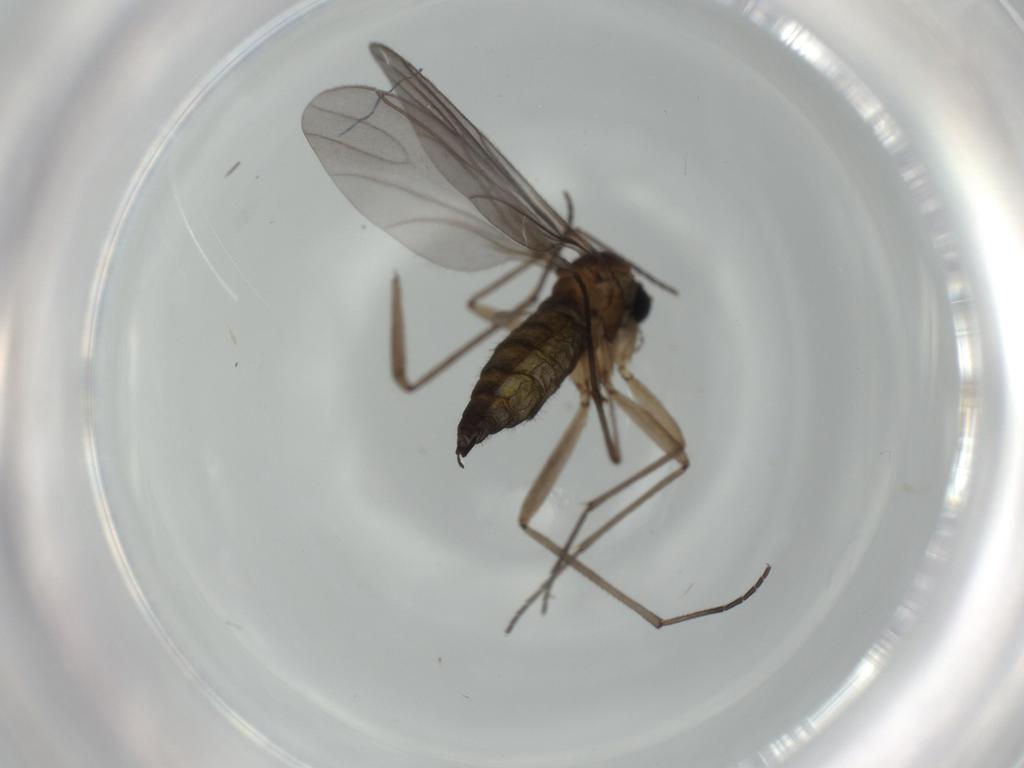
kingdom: Animalia
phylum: Arthropoda
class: Insecta
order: Diptera
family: Sciaridae
